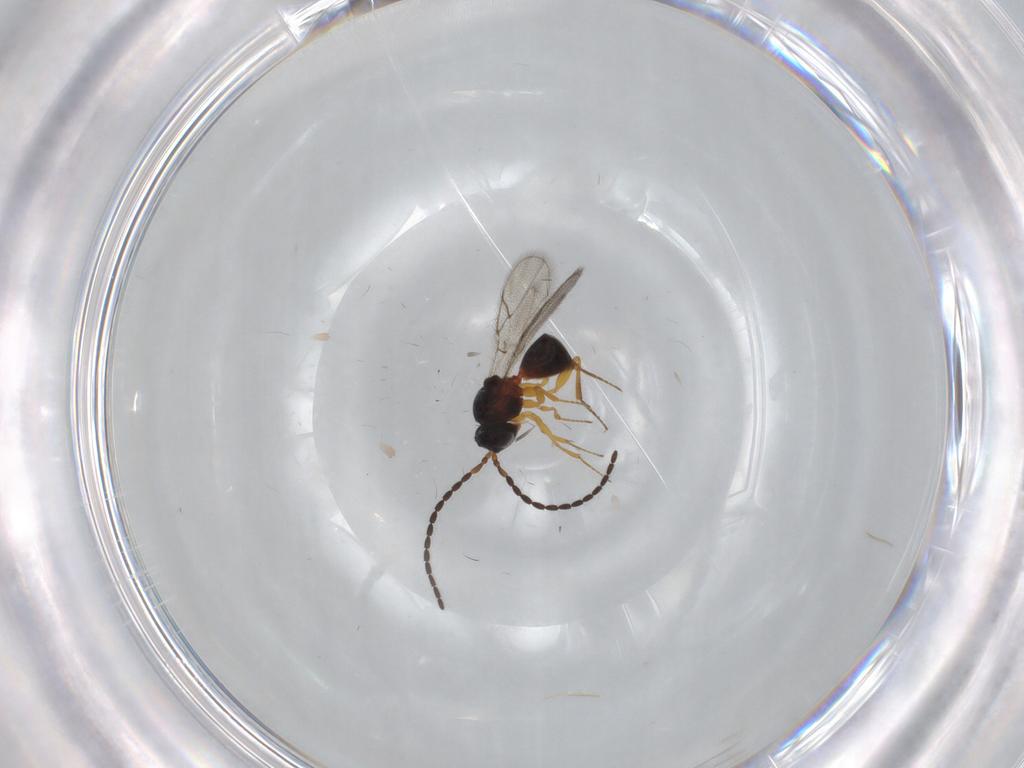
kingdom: Animalia
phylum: Arthropoda
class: Insecta
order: Hymenoptera
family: Figitidae
